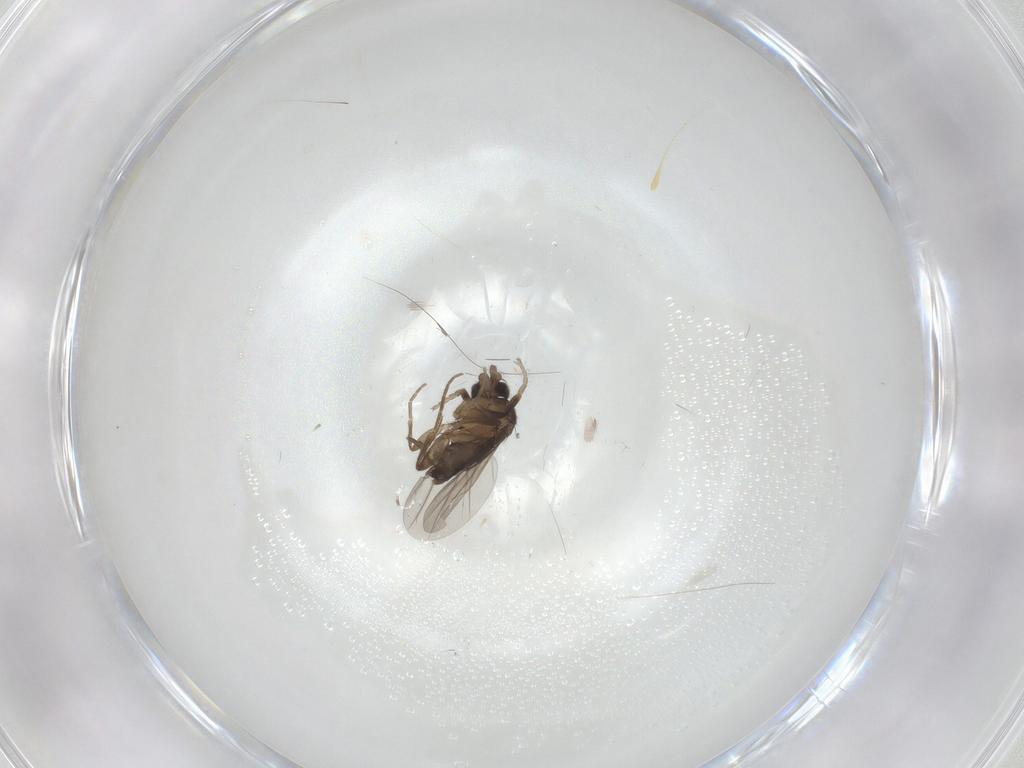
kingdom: Animalia
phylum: Arthropoda
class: Insecta
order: Diptera
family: Phoridae
